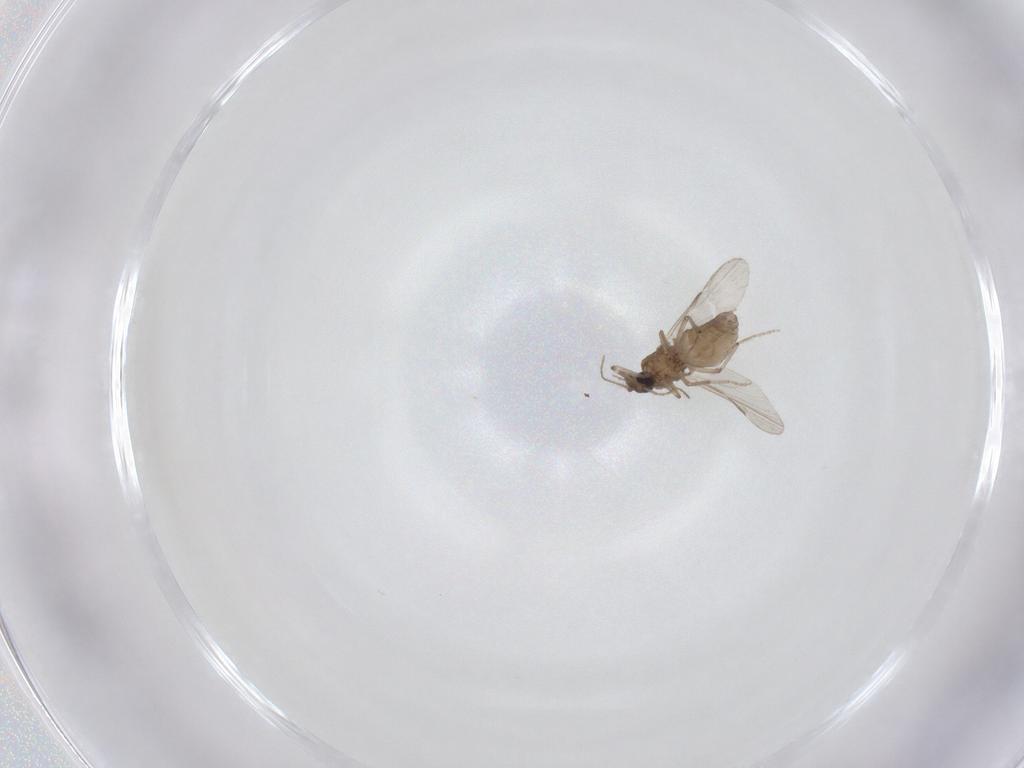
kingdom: Animalia
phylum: Arthropoda
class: Insecta
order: Diptera
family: Ceratopogonidae
